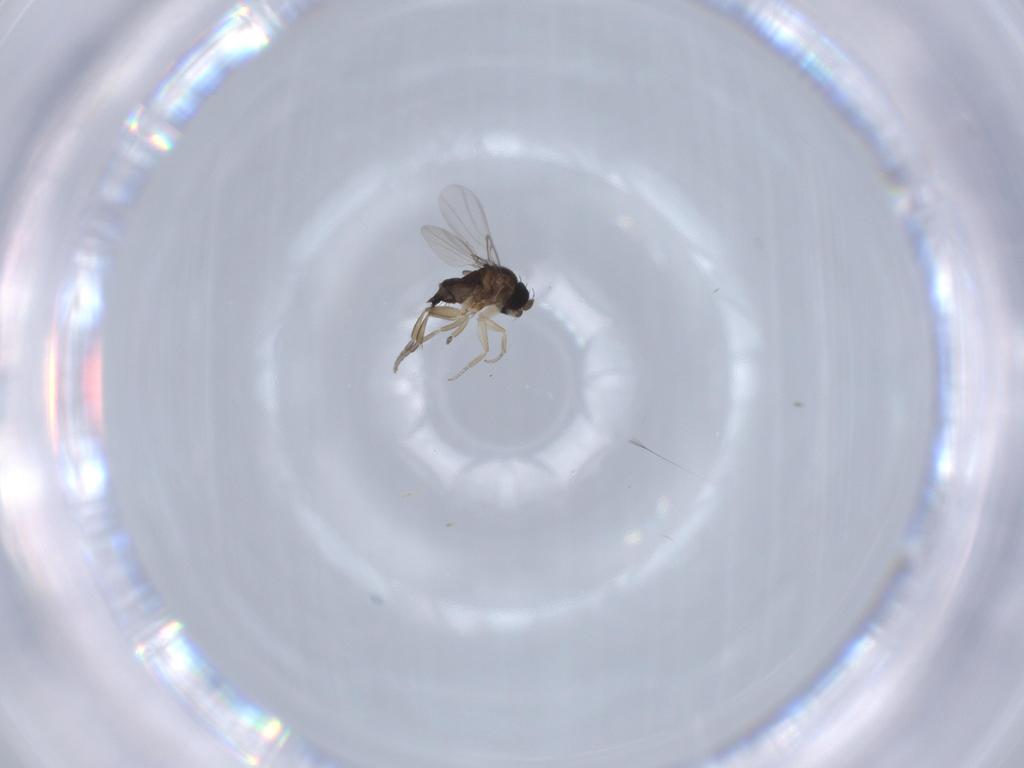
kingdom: Animalia
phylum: Arthropoda
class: Insecta
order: Diptera
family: Phoridae
